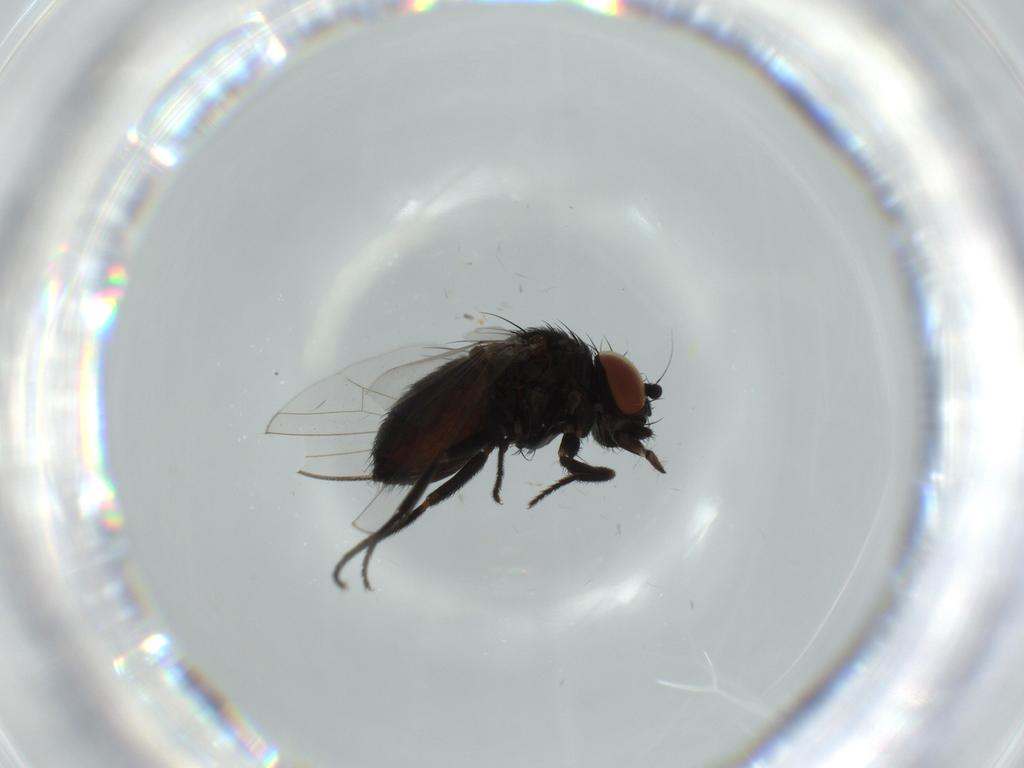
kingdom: Animalia
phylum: Arthropoda
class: Insecta
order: Diptera
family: Milichiidae
